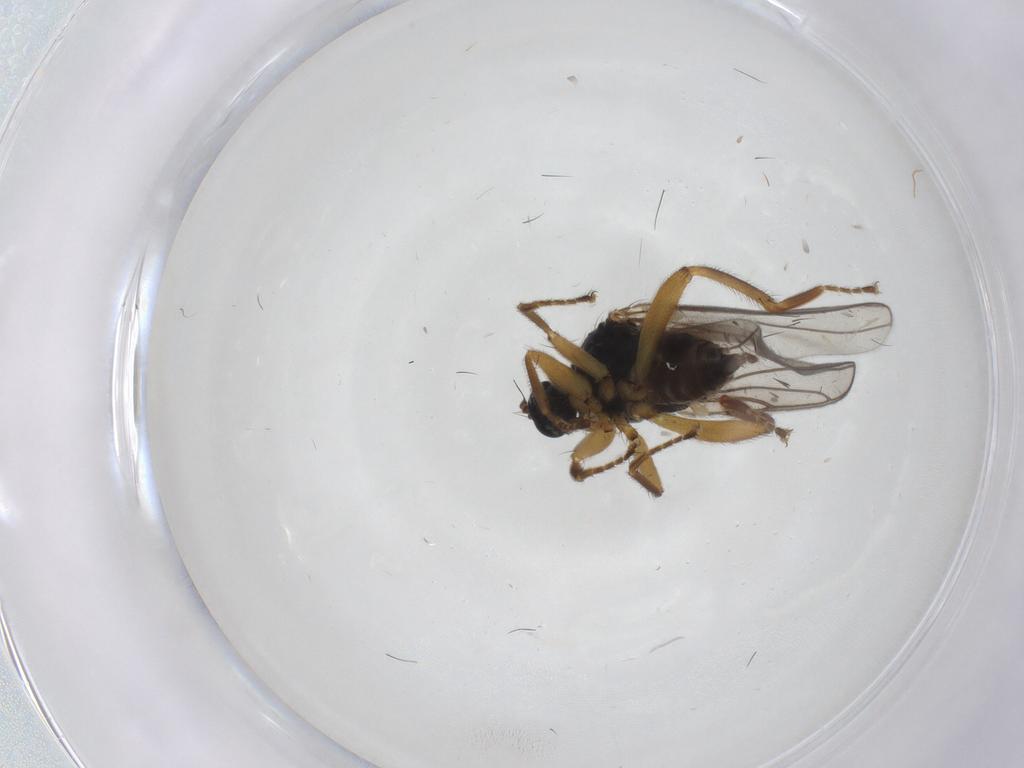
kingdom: Animalia
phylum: Arthropoda
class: Insecta
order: Diptera
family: Hybotidae
